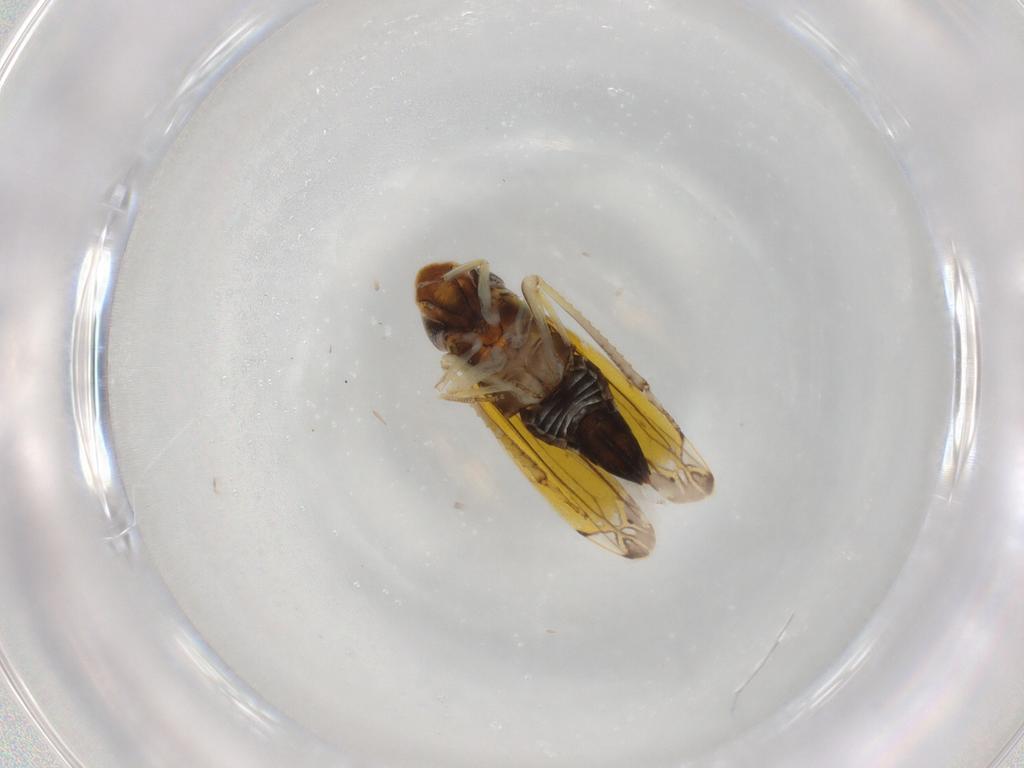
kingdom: Animalia
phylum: Arthropoda
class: Insecta
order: Hemiptera
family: Cicadellidae
